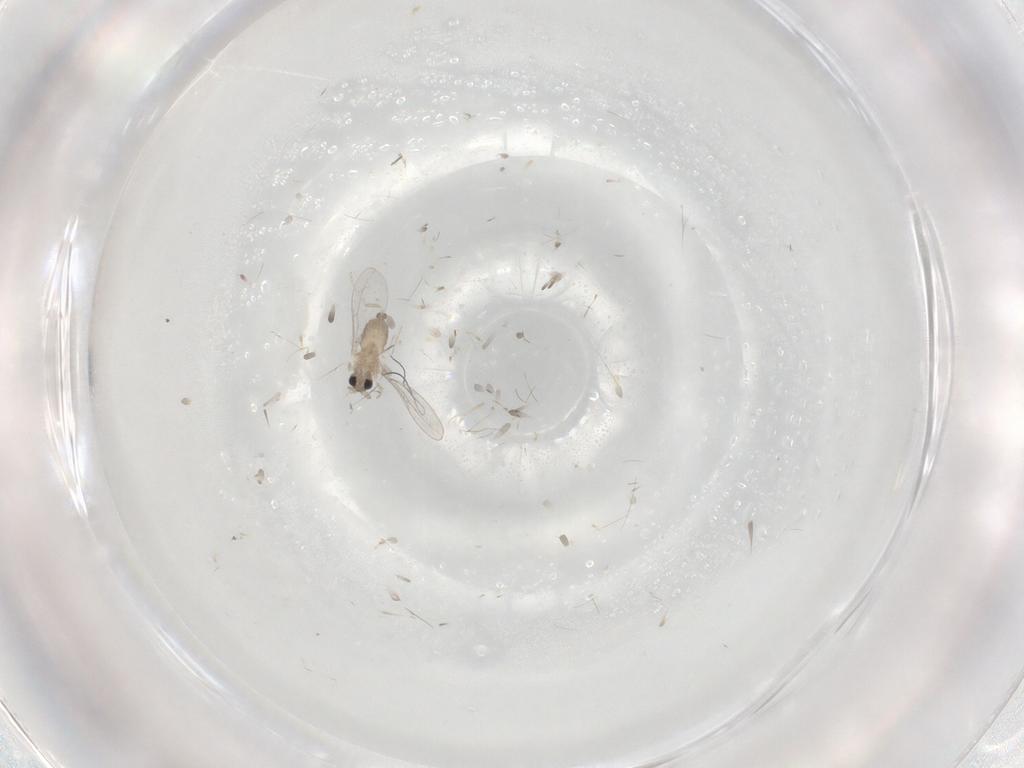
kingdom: Animalia
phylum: Arthropoda
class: Insecta
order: Diptera
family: Cecidomyiidae
